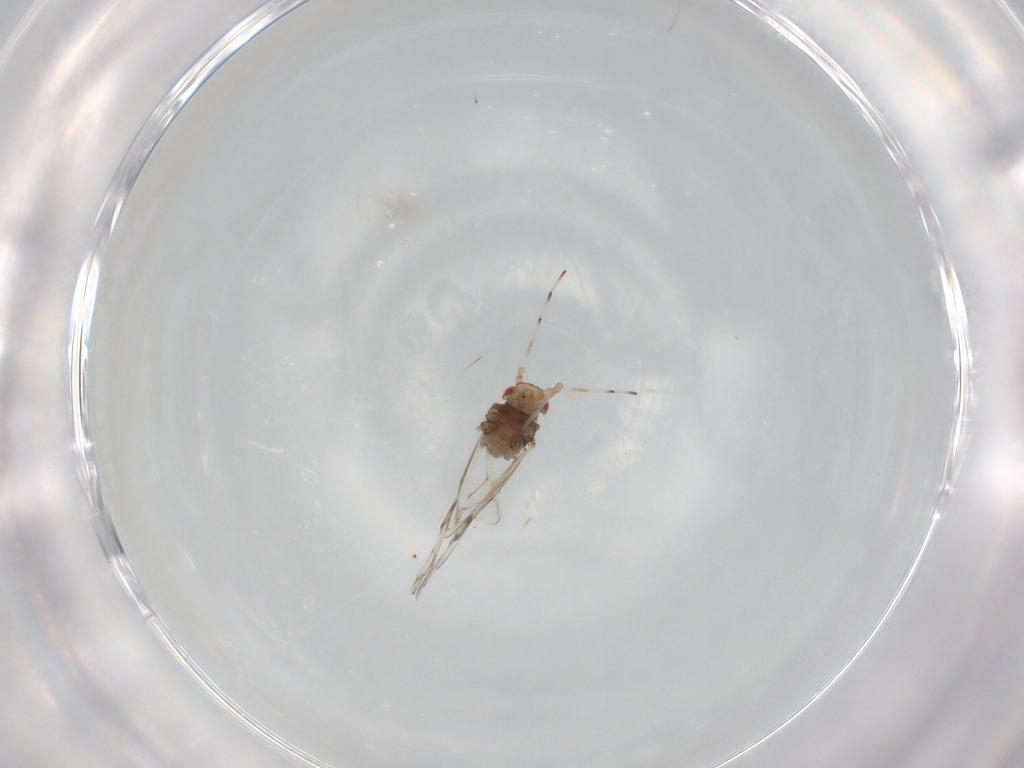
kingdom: Animalia
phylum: Arthropoda
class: Insecta
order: Hemiptera
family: Aphididae
